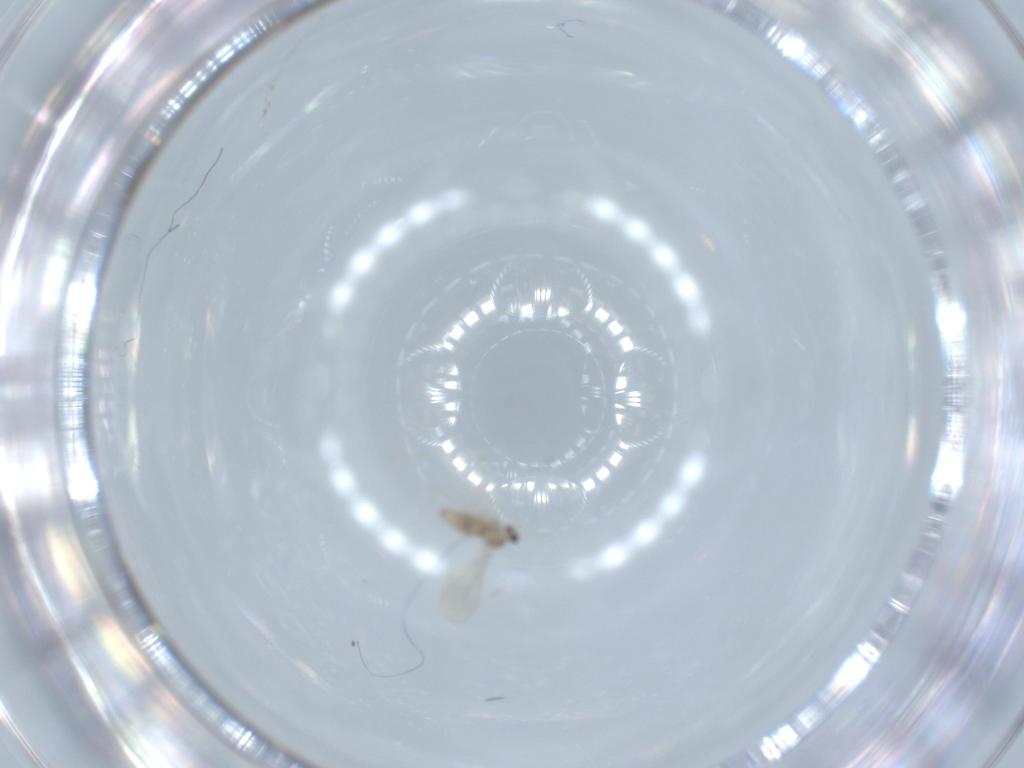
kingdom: Animalia
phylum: Arthropoda
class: Insecta
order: Diptera
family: Cecidomyiidae
